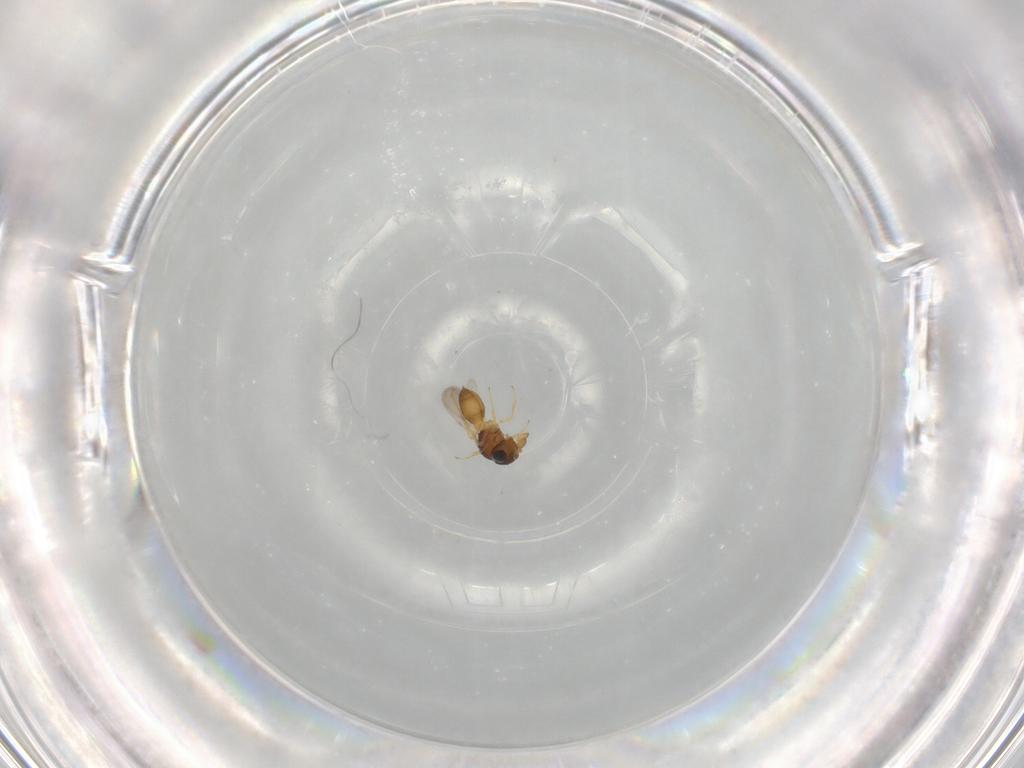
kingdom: Animalia
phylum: Arthropoda
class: Insecta
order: Hymenoptera
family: Scelionidae
